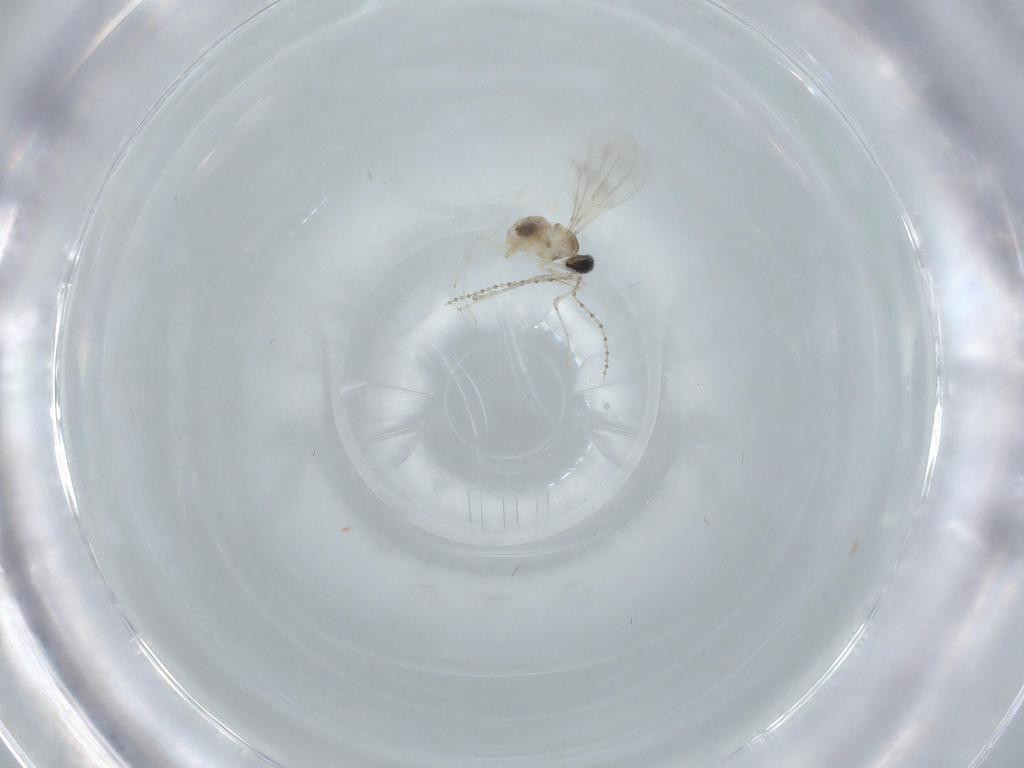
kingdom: Animalia
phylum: Arthropoda
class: Insecta
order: Diptera
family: Cecidomyiidae
